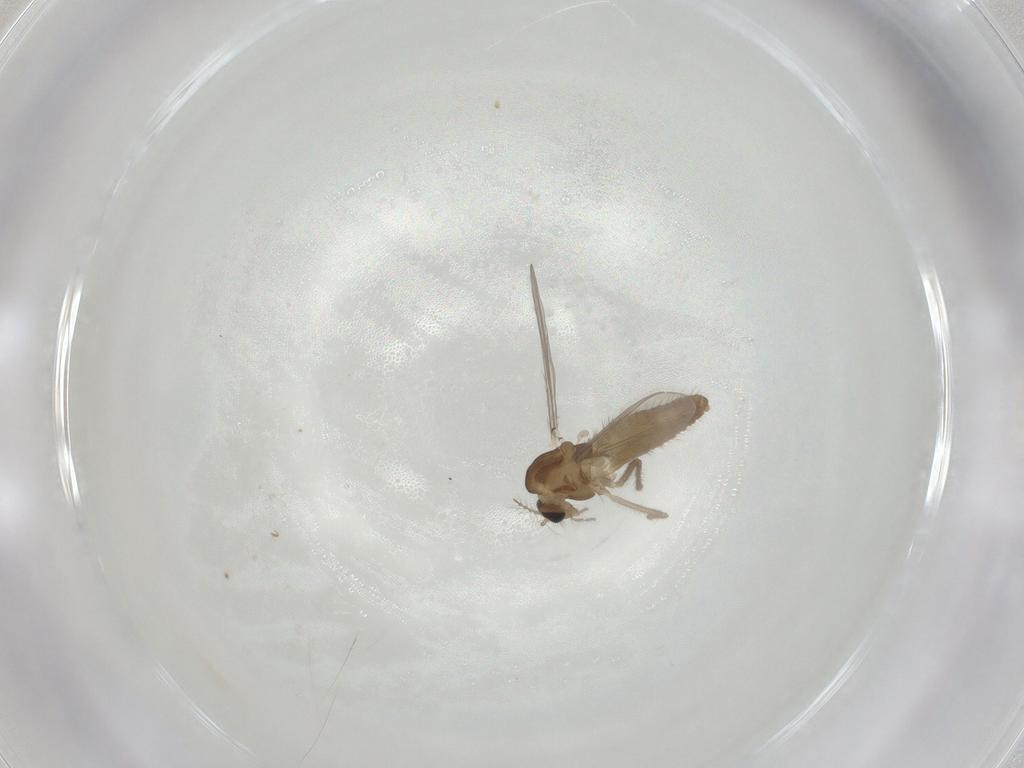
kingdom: Animalia
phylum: Arthropoda
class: Insecta
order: Diptera
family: Chironomidae
